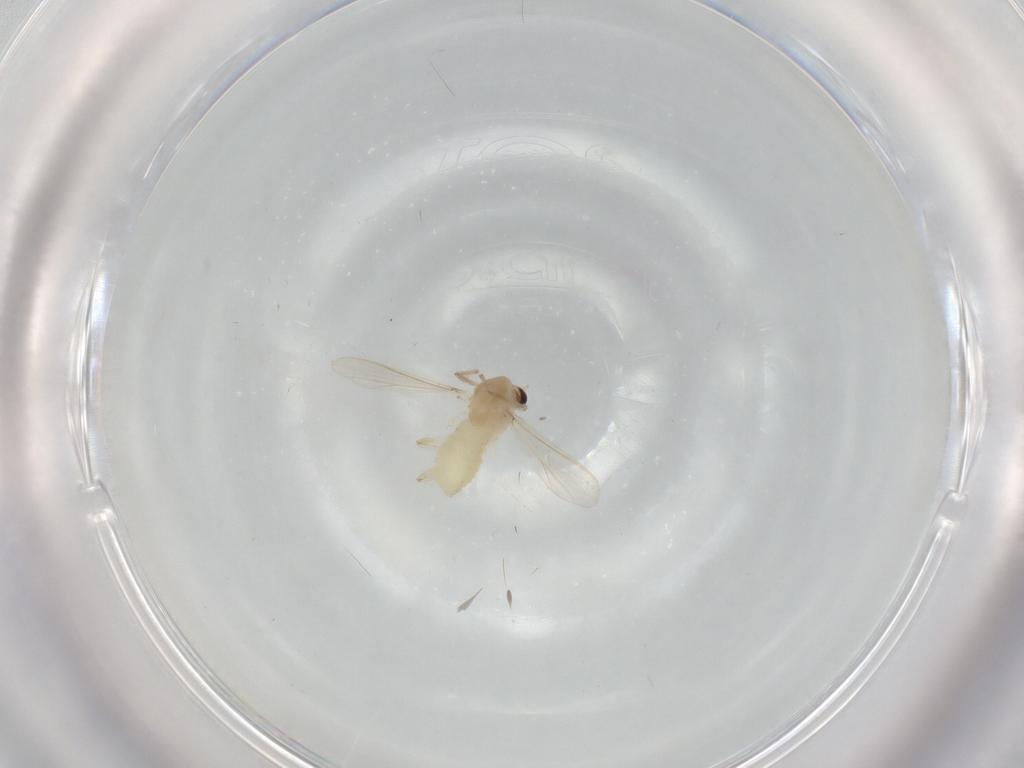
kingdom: Animalia
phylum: Arthropoda
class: Insecta
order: Diptera
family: Chironomidae
